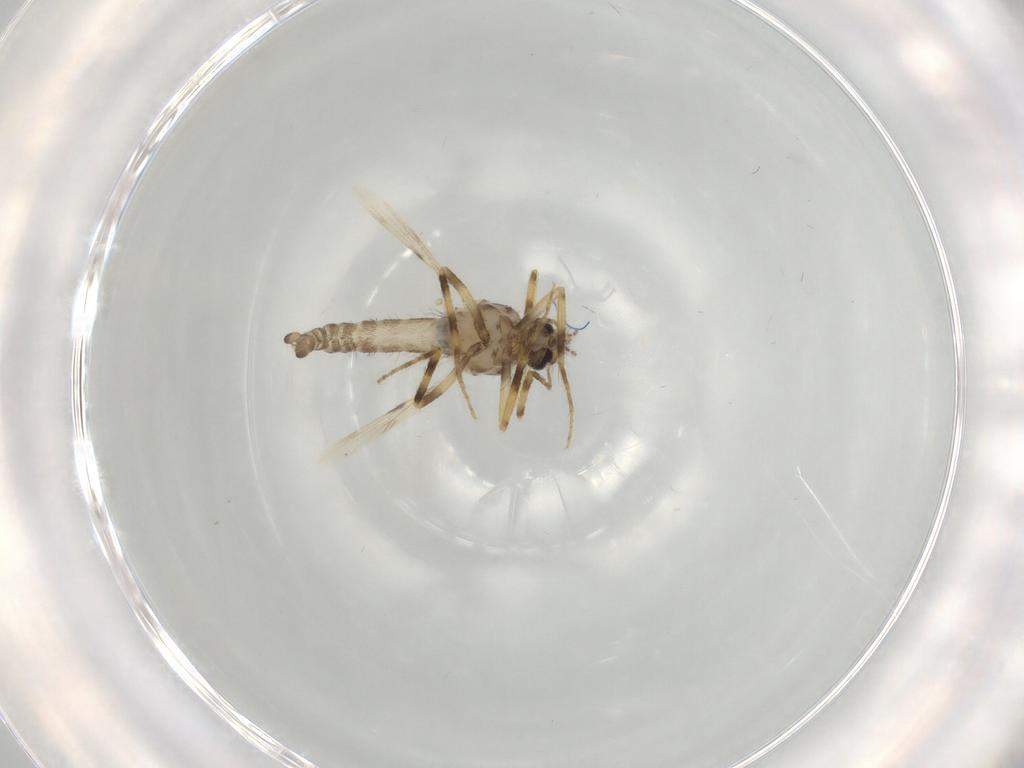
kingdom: Animalia
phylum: Arthropoda
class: Insecta
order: Diptera
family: Ceratopogonidae
